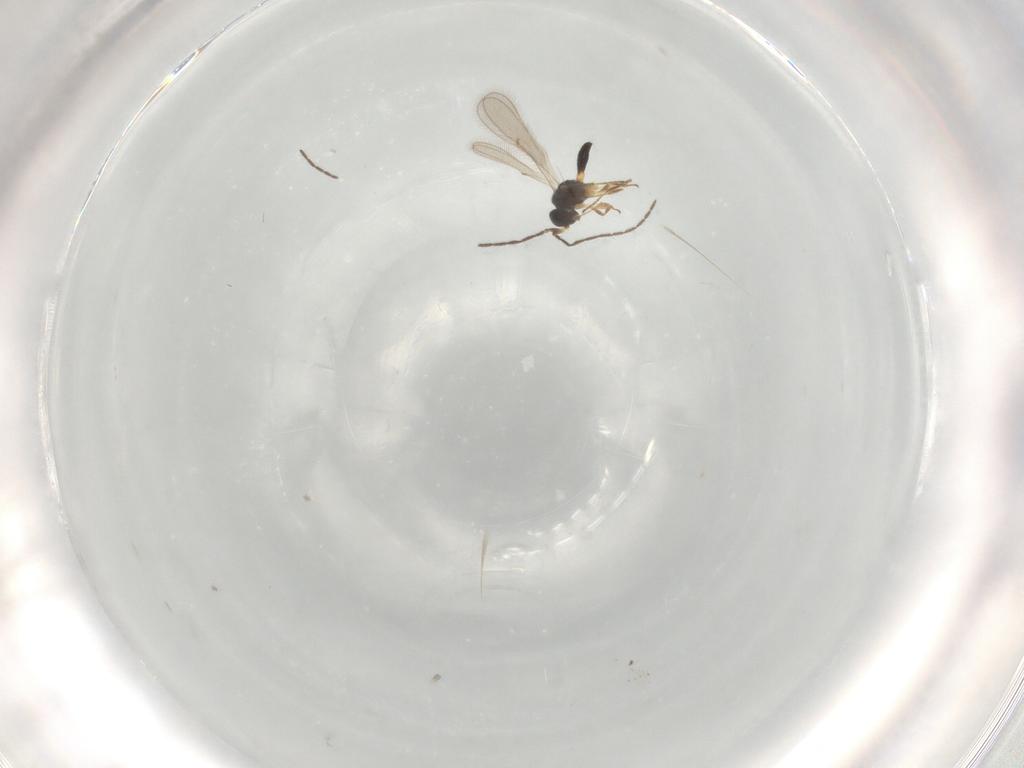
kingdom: Animalia
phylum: Arthropoda
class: Insecta
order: Hymenoptera
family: Scelionidae
